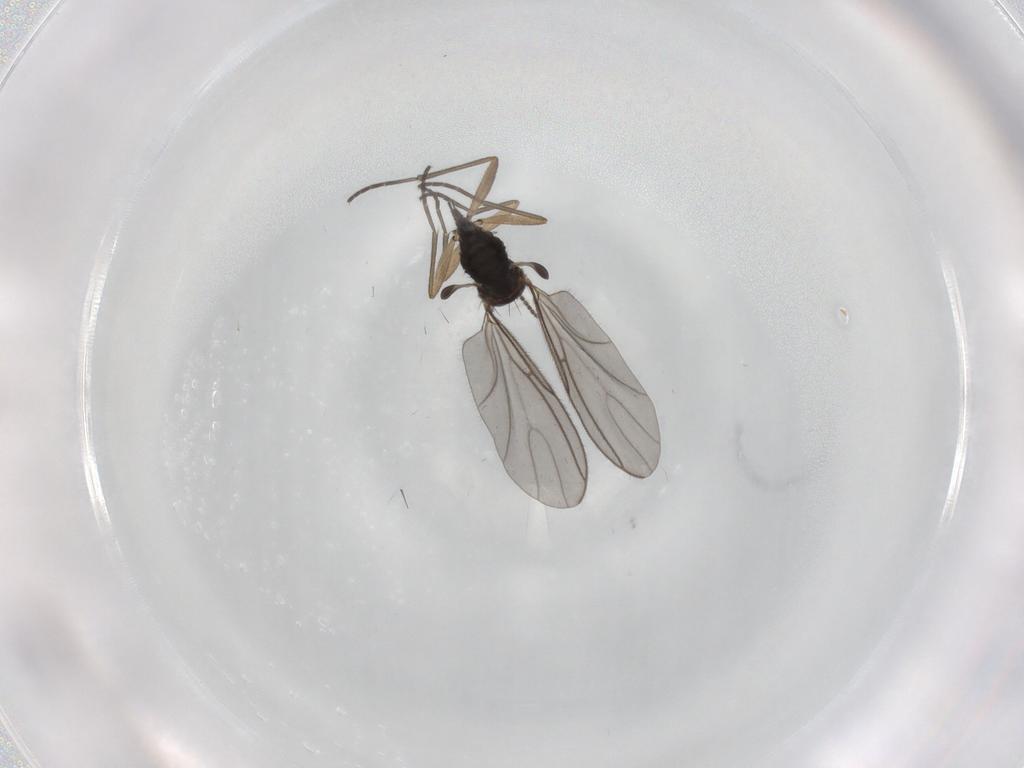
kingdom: Animalia
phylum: Arthropoda
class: Insecta
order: Diptera
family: Sciaridae
